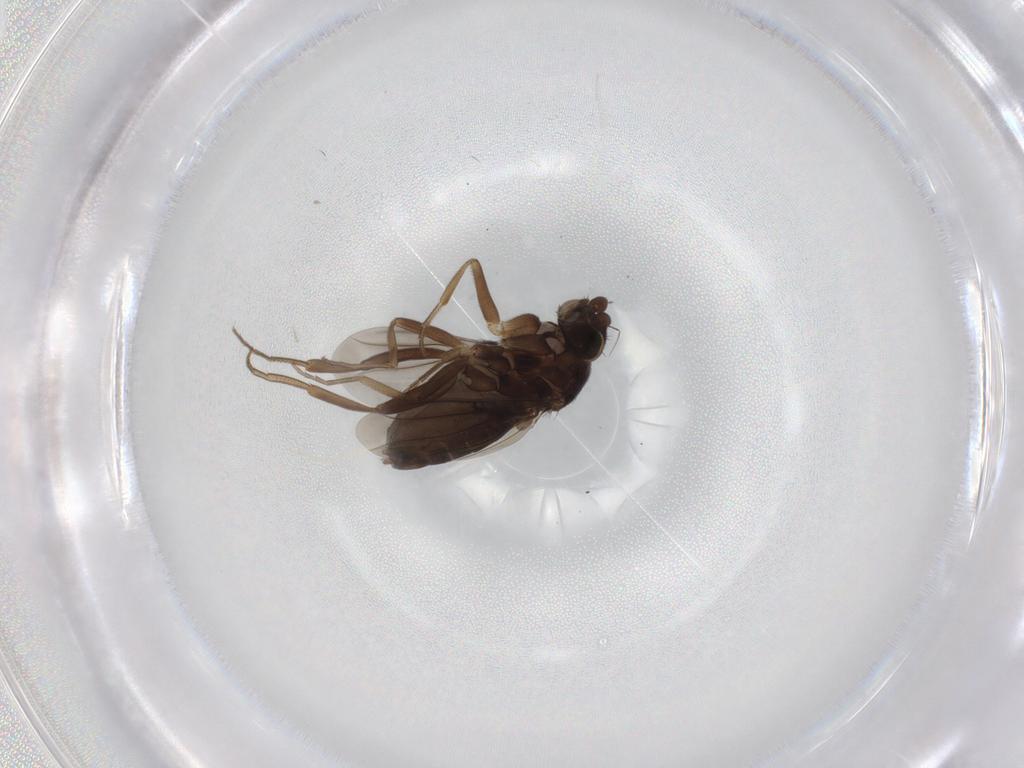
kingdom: Animalia
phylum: Arthropoda
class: Insecta
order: Diptera
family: Phoridae
